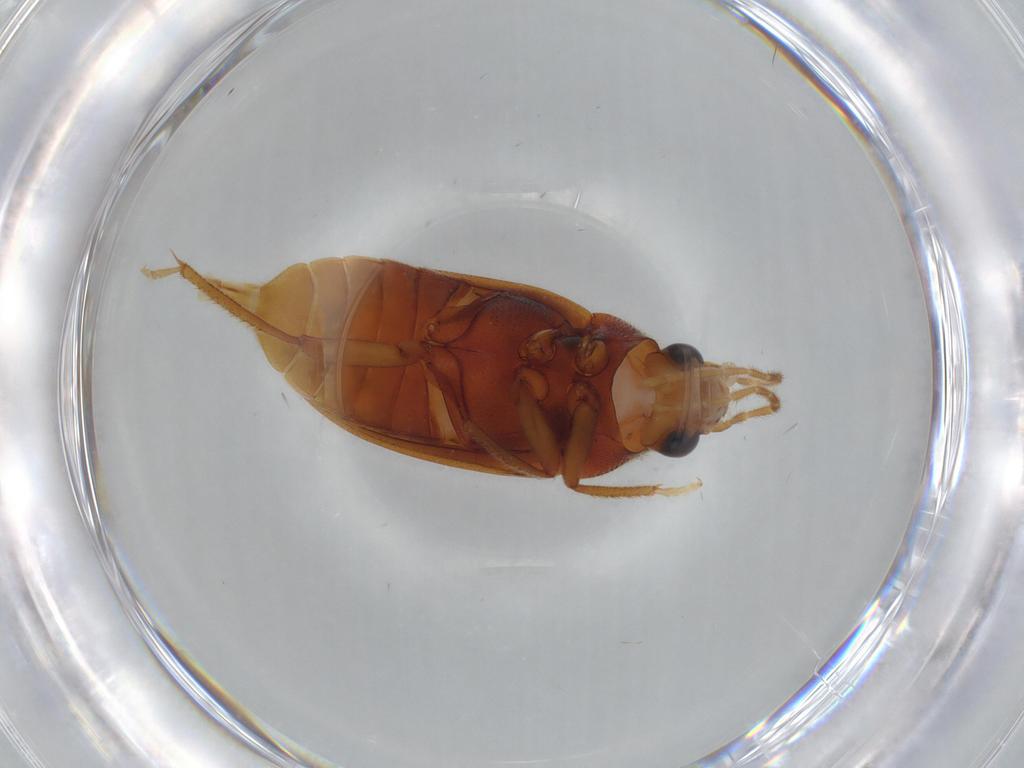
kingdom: Animalia
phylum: Arthropoda
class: Insecta
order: Coleoptera
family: Ptilodactylidae
